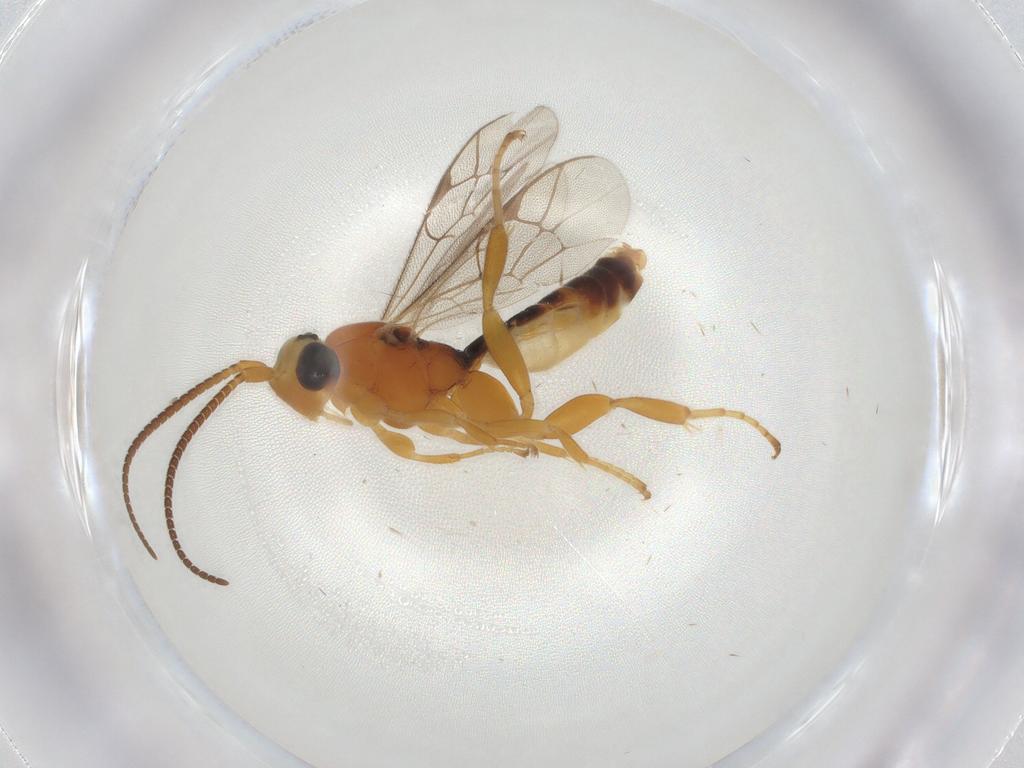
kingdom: Animalia
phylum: Arthropoda
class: Insecta
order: Hymenoptera
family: Ichneumonidae
